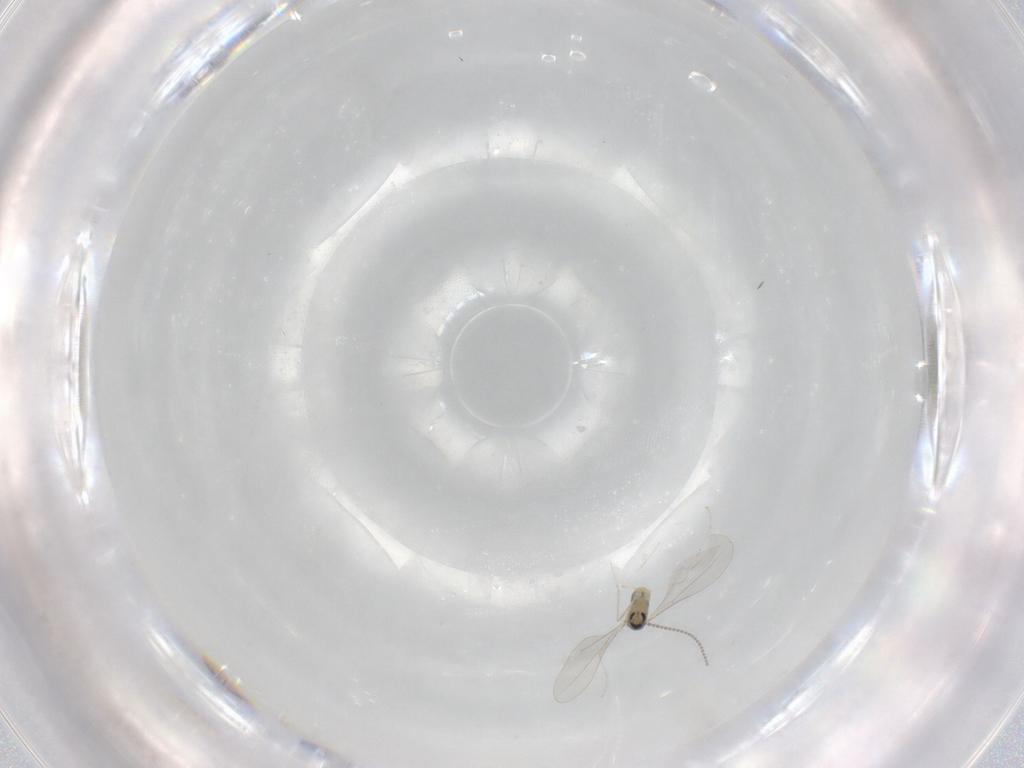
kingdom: Animalia
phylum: Arthropoda
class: Insecta
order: Diptera
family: Cecidomyiidae
